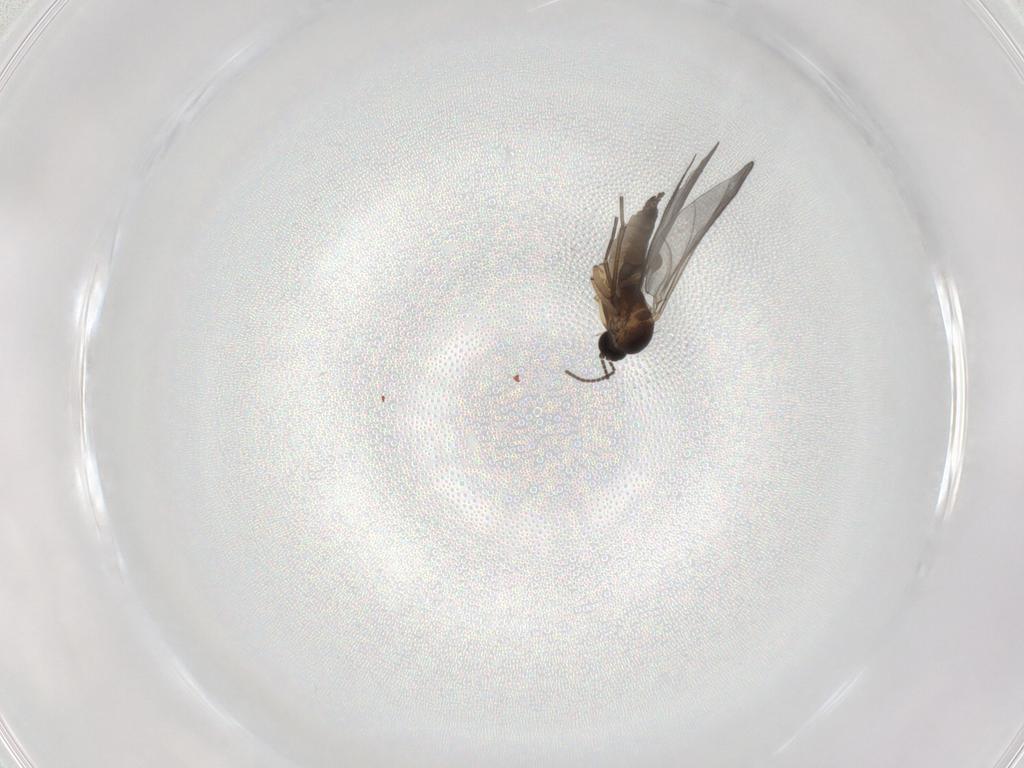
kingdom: Animalia
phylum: Arthropoda
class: Insecta
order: Diptera
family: Sciaridae
